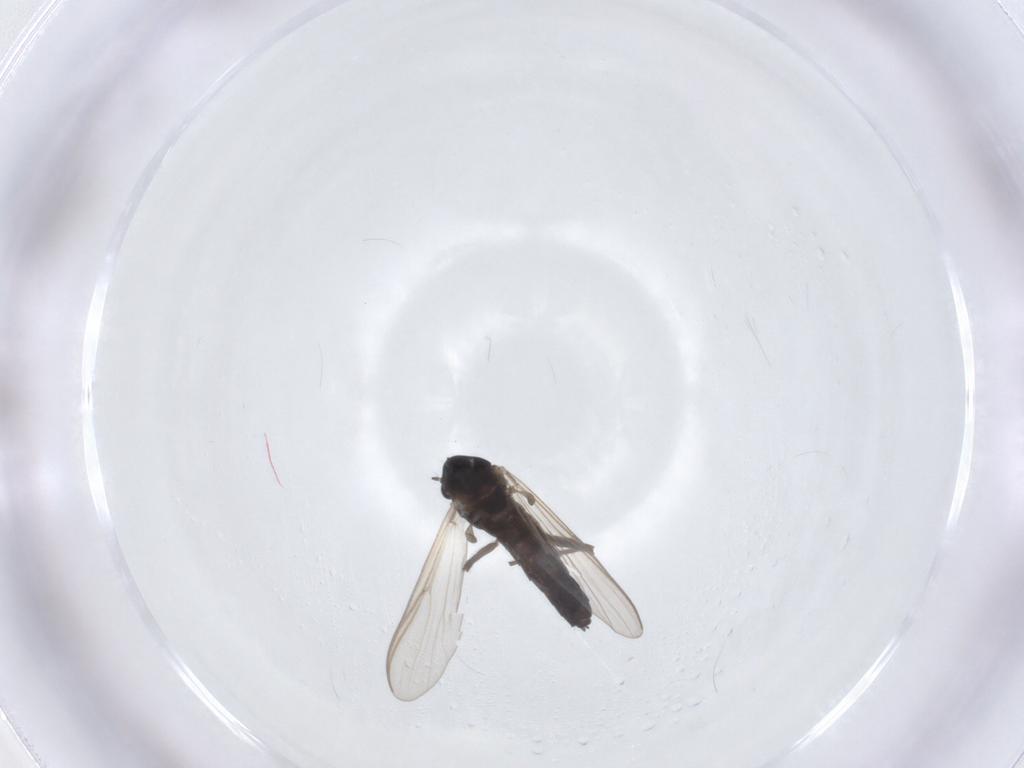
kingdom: Animalia
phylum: Arthropoda
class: Insecta
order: Diptera
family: Chironomidae
